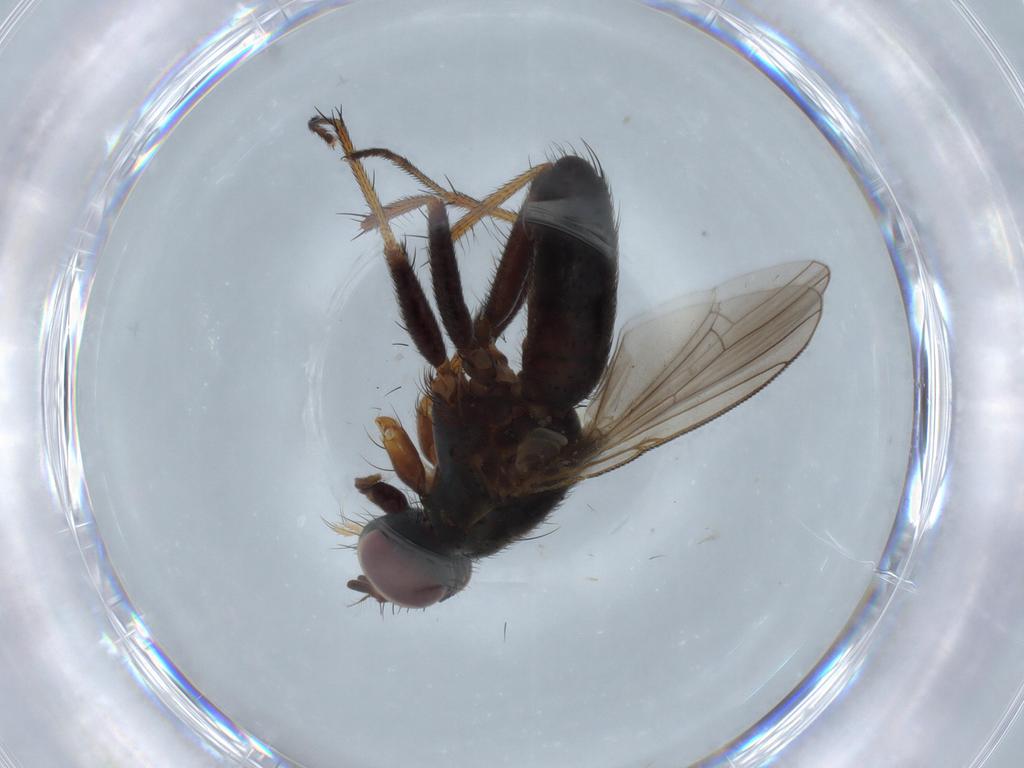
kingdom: Animalia
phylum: Arthropoda
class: Insecta
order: Diptera
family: Muscidae
